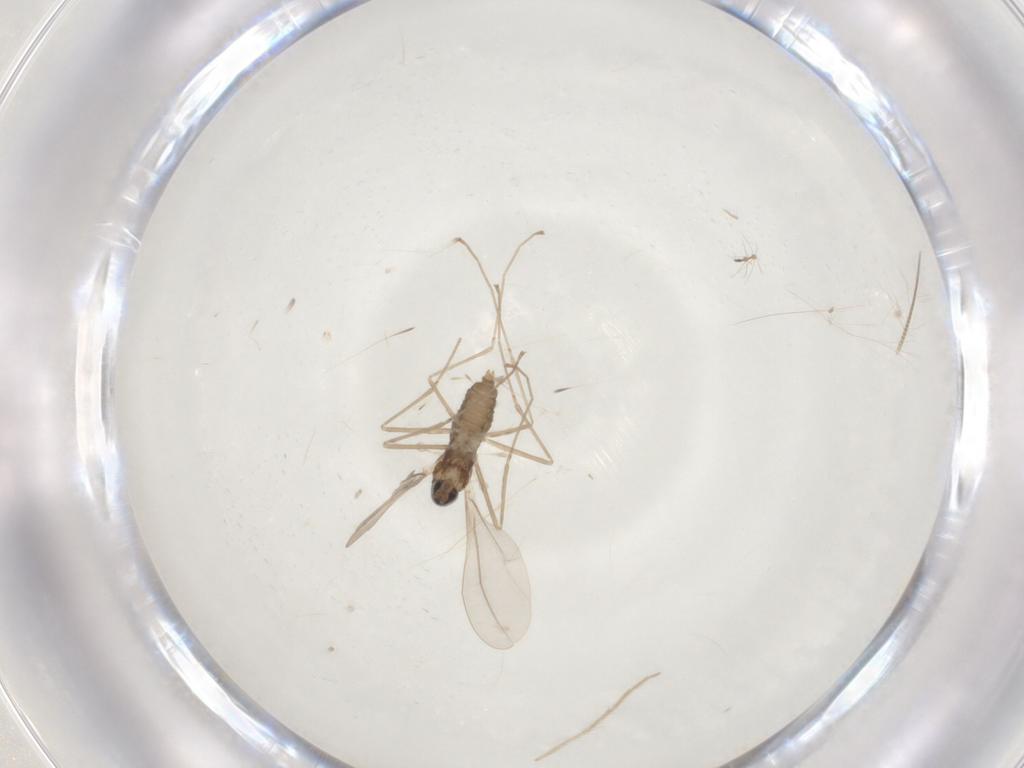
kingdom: Animalia
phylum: Arthropoda
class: Insecta
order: Diptera
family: Cecidomyiidae
